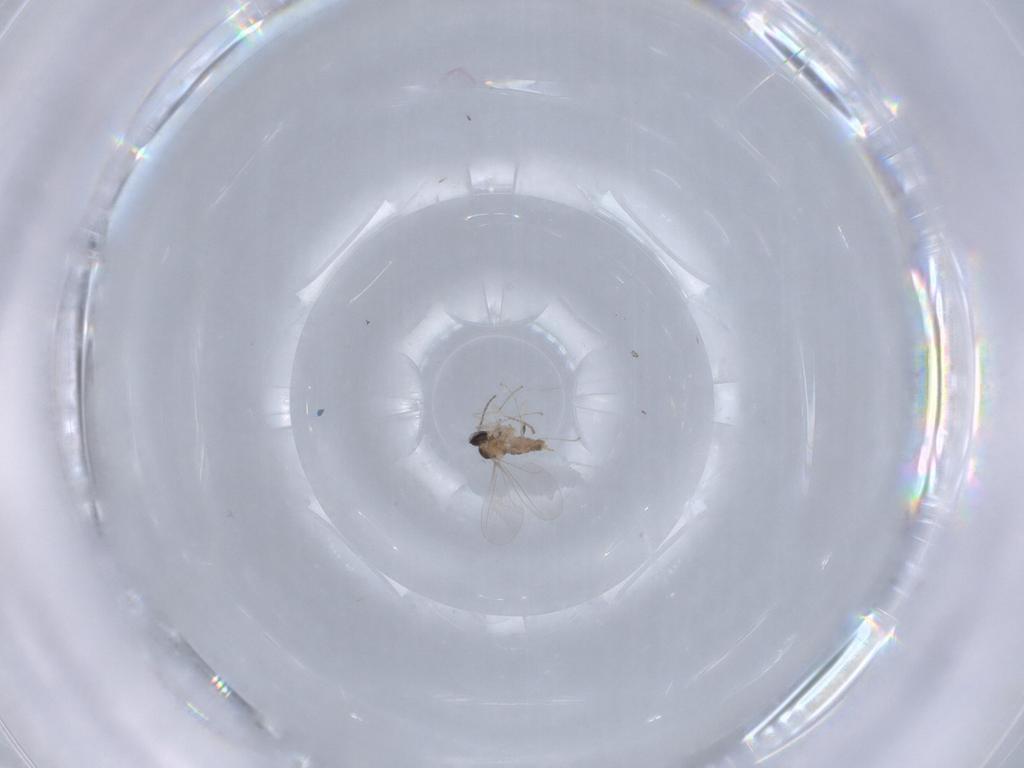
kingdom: Animalia
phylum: Arthropoda
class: Insecta
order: Diptera
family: Cecidomyiidae
